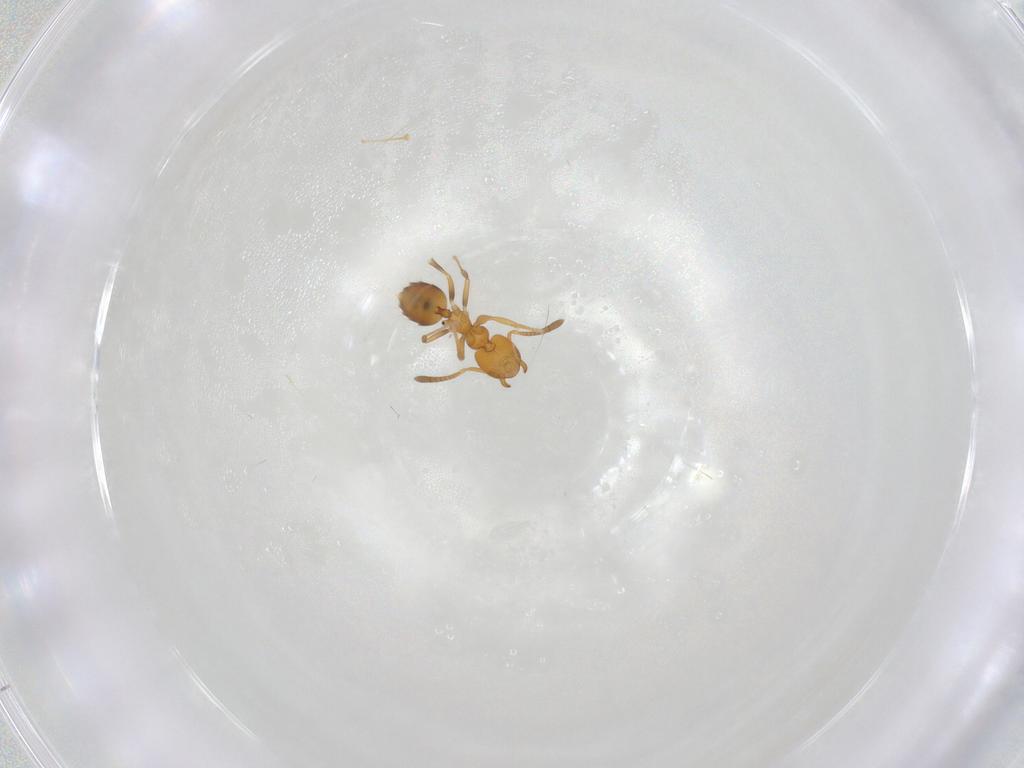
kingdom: Animalia
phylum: Arthropoda
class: Insecta
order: Hymenoptera
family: Formicidae
